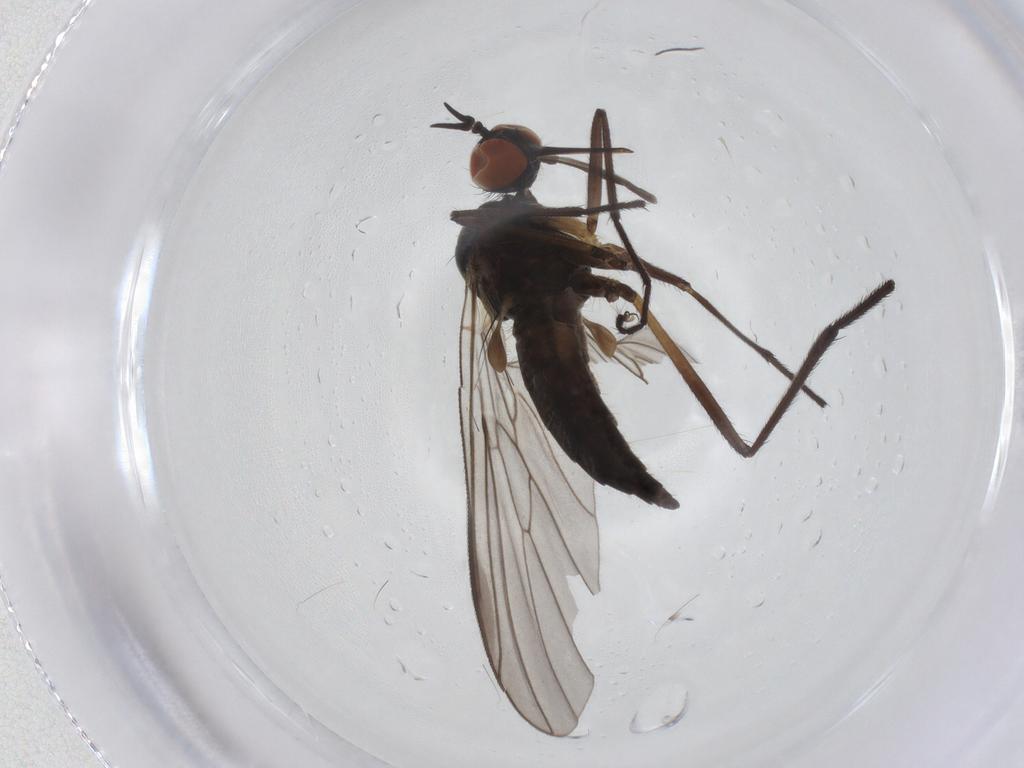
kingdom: Animalia
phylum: Arthropoda
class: Insecta
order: Diptera
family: Empididae
